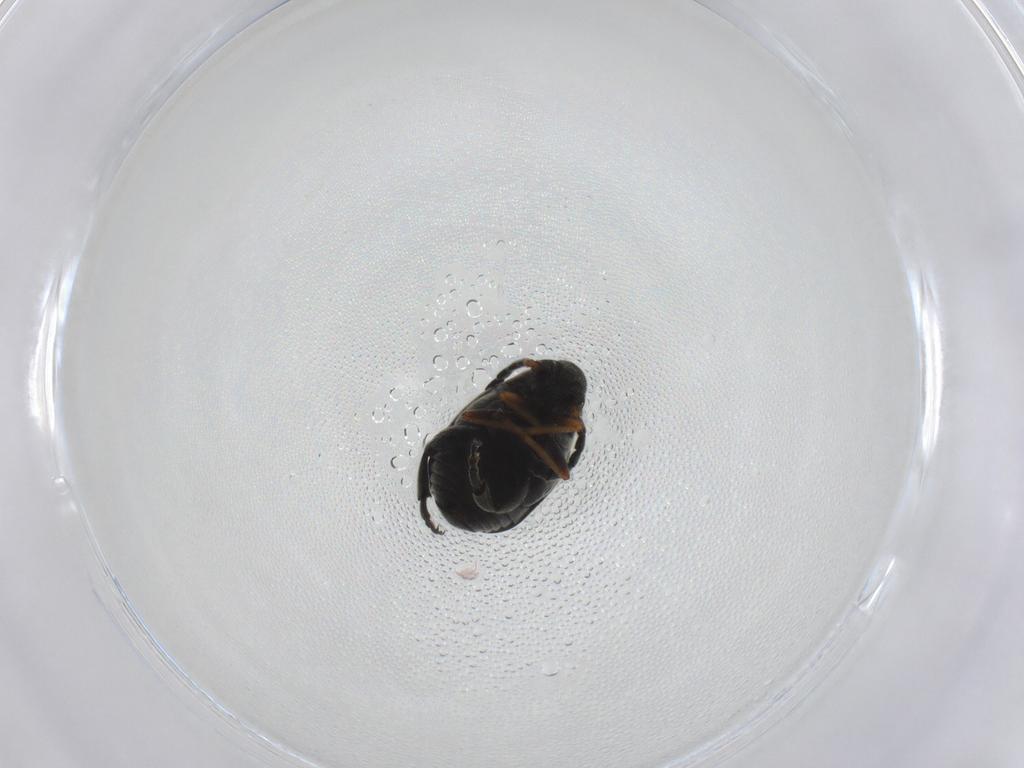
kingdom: Animalia
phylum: Arthropoda
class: Insecta
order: Coleoptera
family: Chrysomelidae
